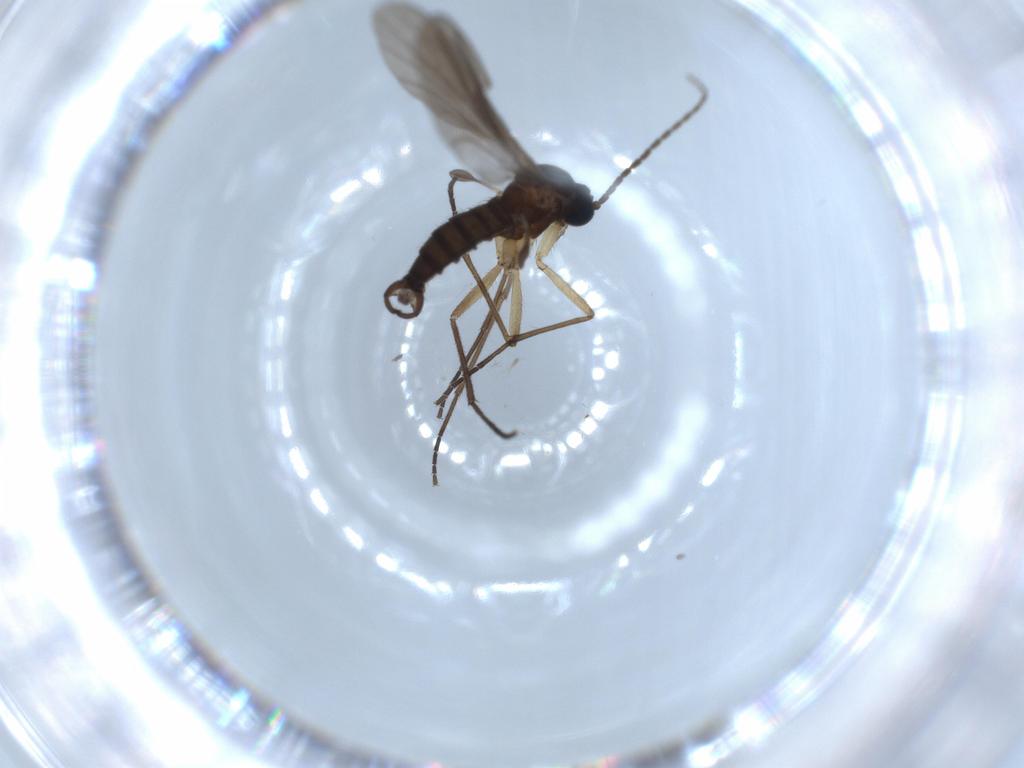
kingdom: Animalia
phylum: Arthropoda
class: Insecta
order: Diptera
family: Sciaridae
